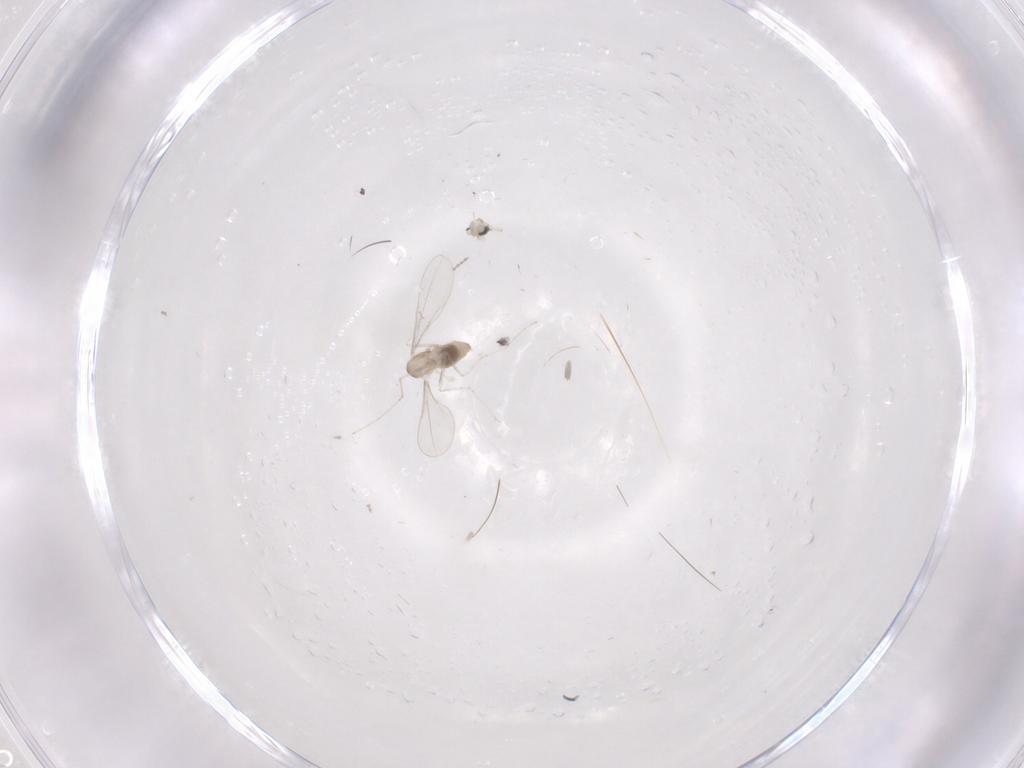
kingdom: Animalia
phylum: Arthropoda
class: Insecta
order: Diptera
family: Cecidomyiidae
